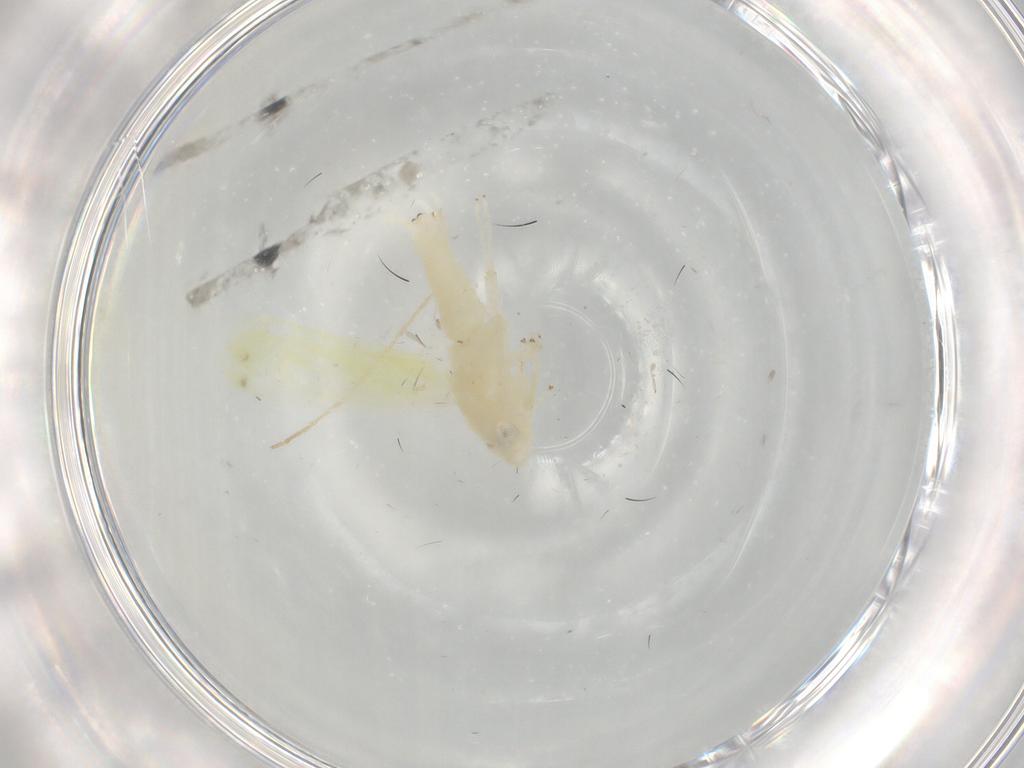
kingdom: Animalia
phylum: Arthropoda
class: Insecta
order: Hemiptera
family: Cicadellidae
